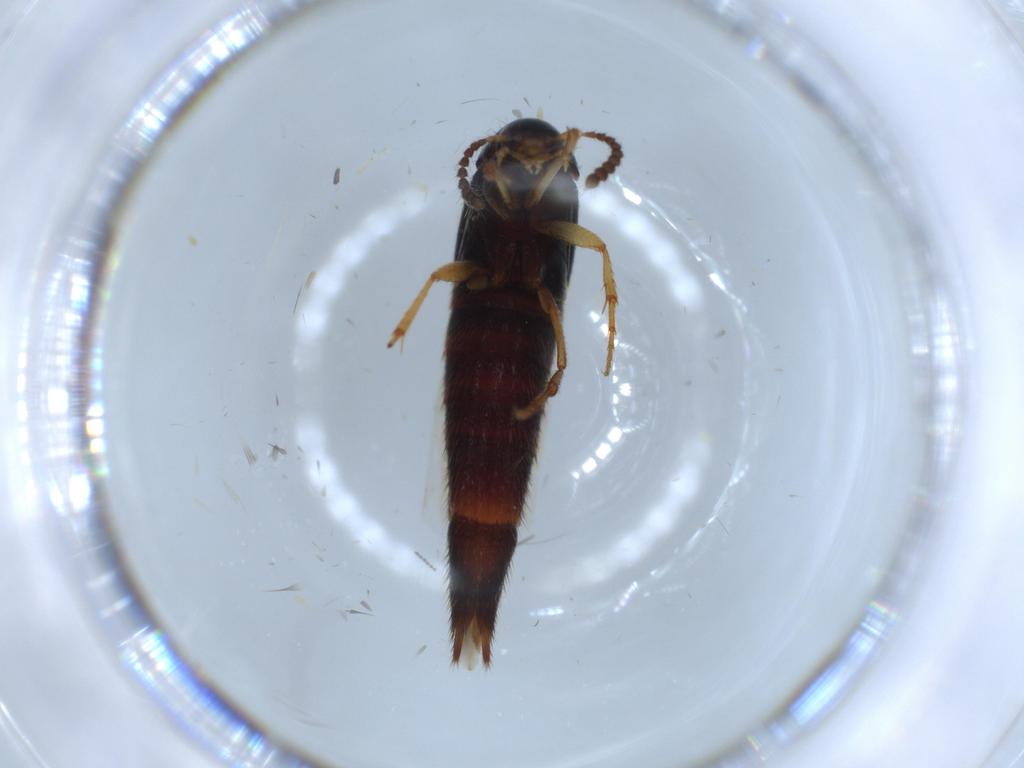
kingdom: Animalia
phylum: Arthropoda
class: Insecta
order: Coleoptera
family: Staphylinidae
